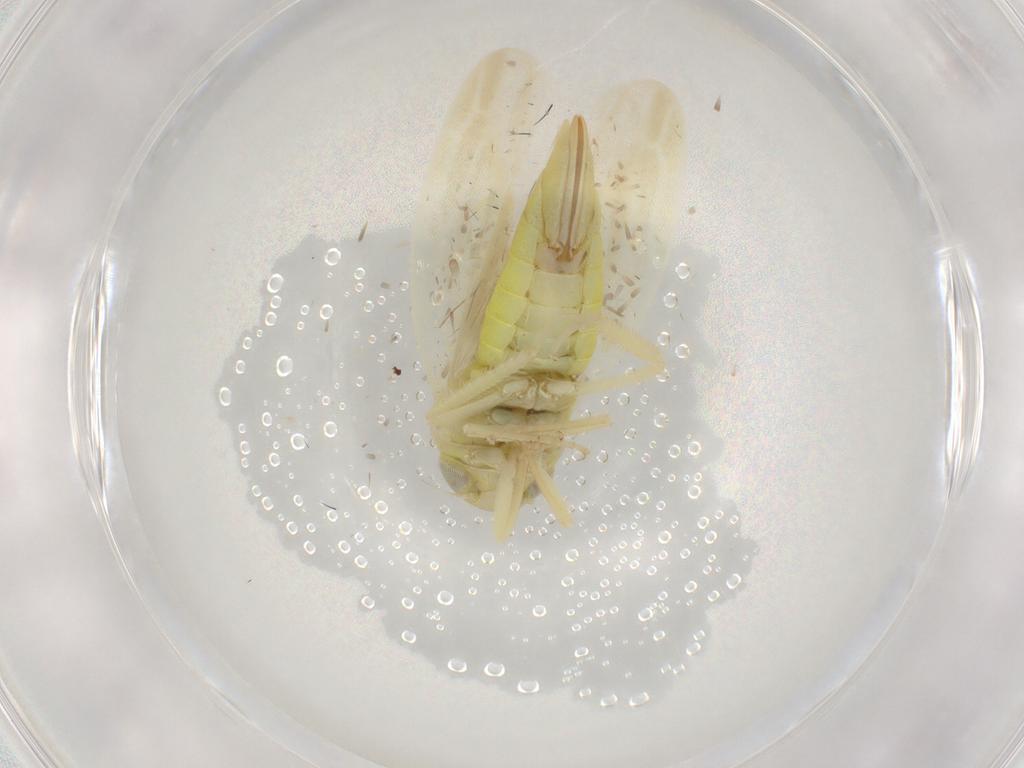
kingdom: Animalia
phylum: Arthropoda
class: Insecta
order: Hemiptera
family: Cicadellidae
